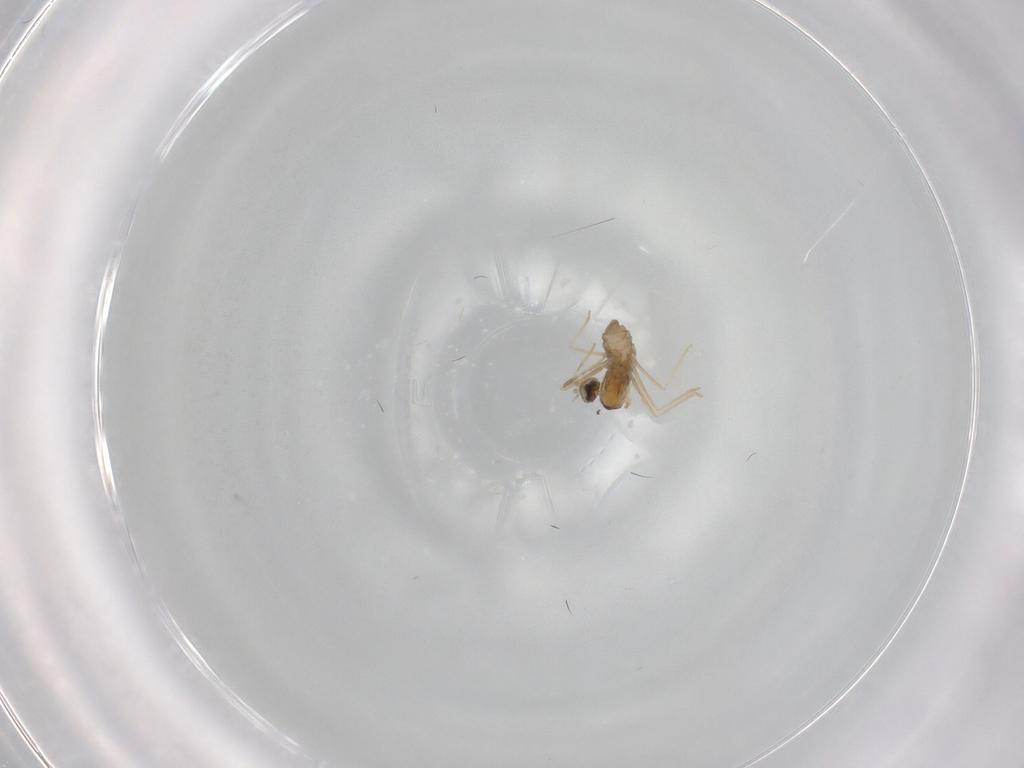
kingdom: Animalia
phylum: Arthropoda
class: Insecta
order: Diptera
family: Cecidomyiidae
